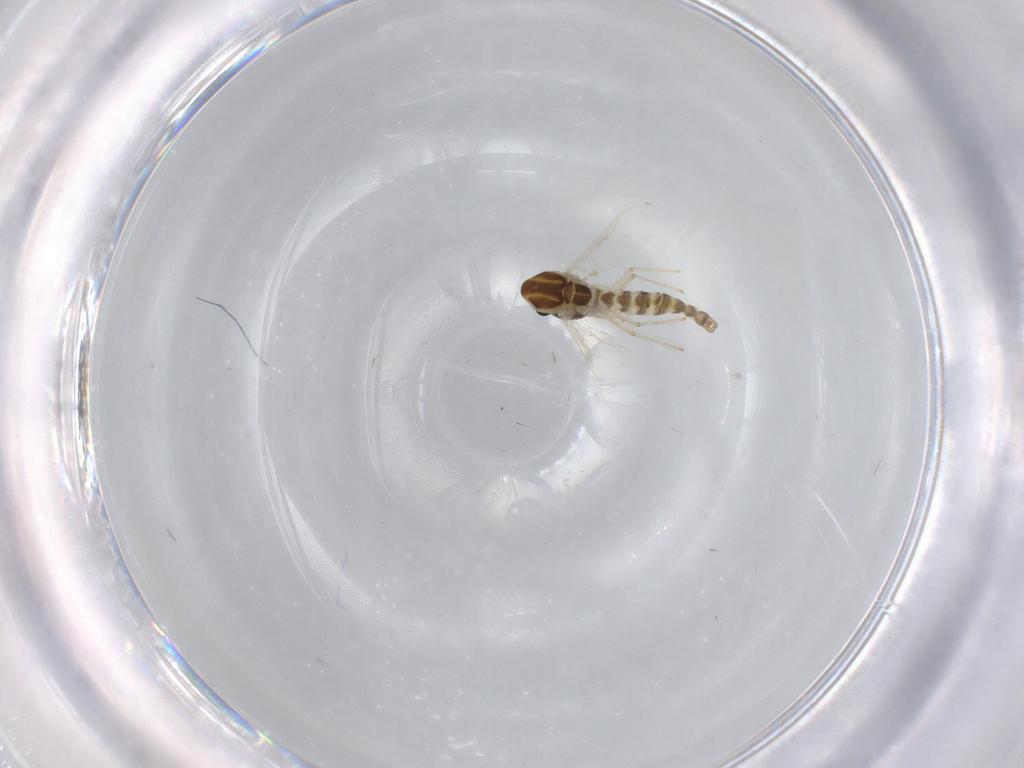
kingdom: Animalia
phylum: Arthropoda
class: Insecta
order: Diptera
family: Chironomidae
